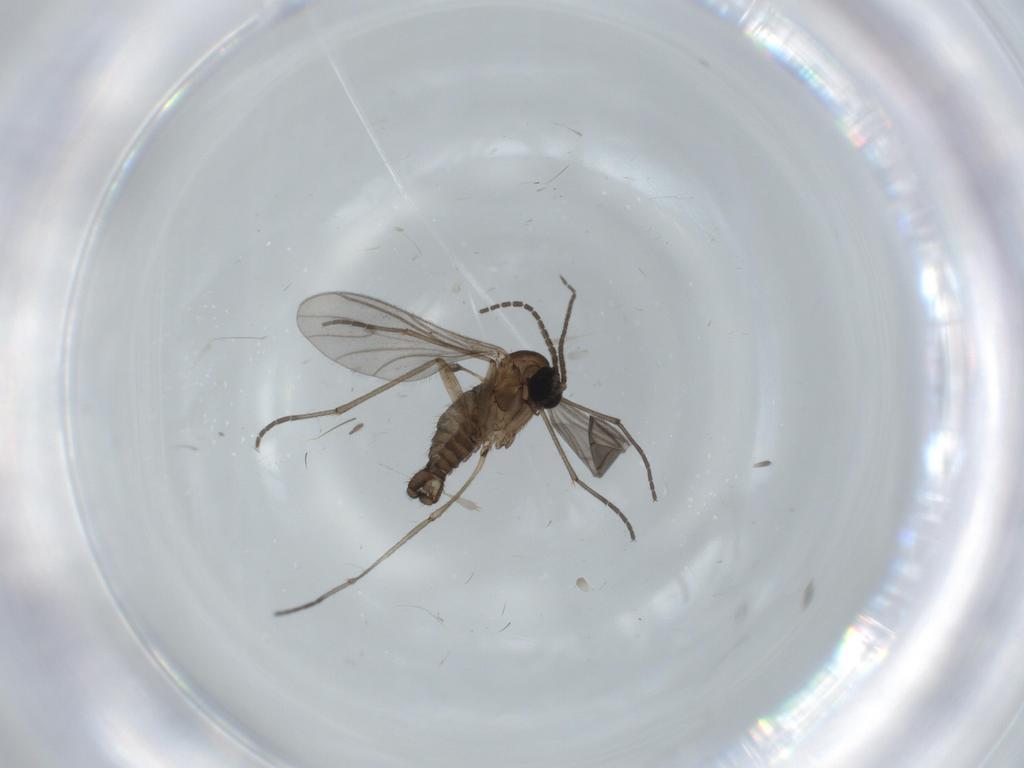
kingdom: Animalia
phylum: Arthropoda
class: Insecta
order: Diptera
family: Sciaridae
